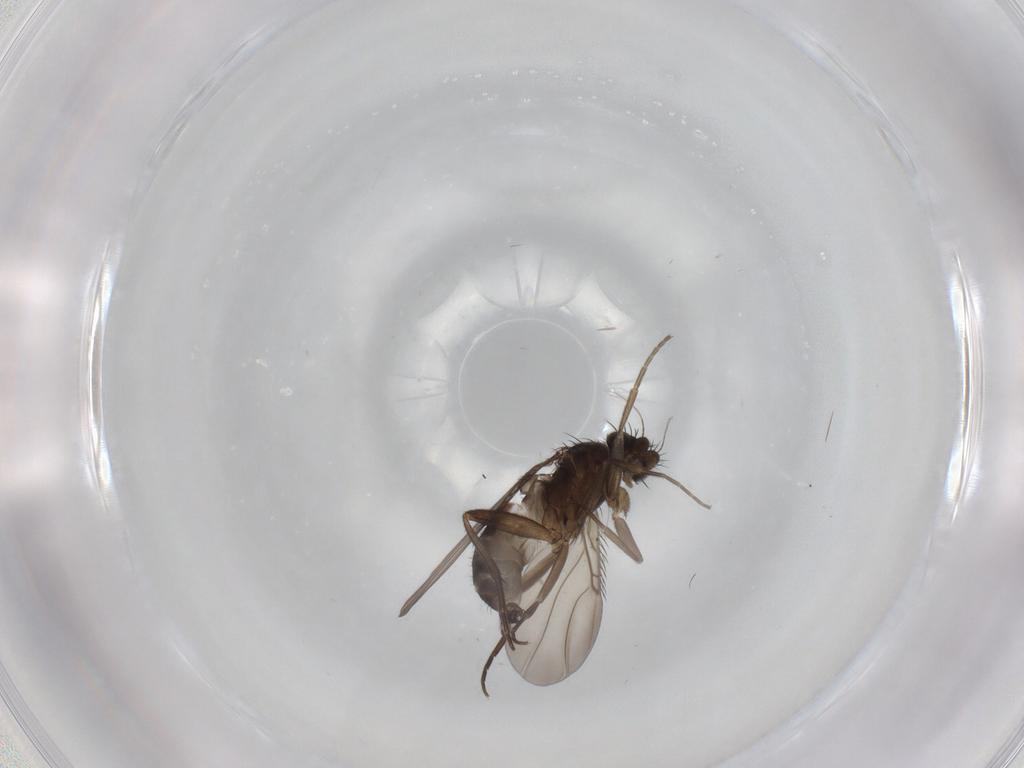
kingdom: Animalia
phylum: Arthropoda
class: Insecta
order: Diptera
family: Phoridae
